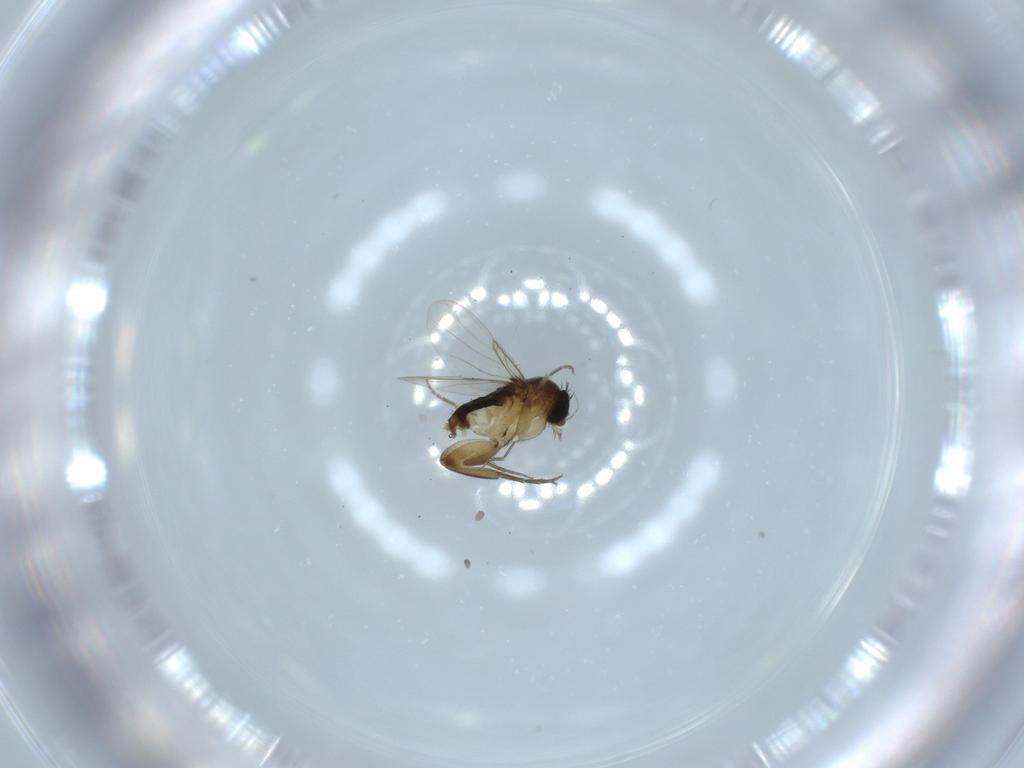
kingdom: Animalia
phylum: Arthropoda
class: Insecta
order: Diptera
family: Phoridae
